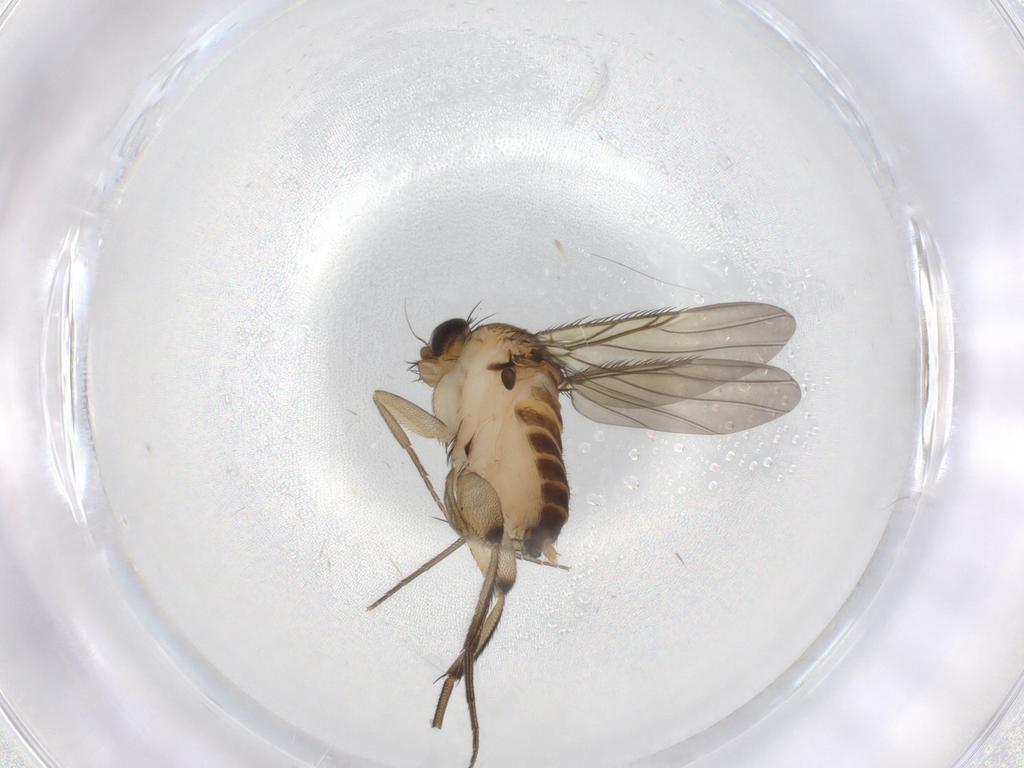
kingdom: Animalia
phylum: Arthropoda
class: Insecta
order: Diptera
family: Phoridae
